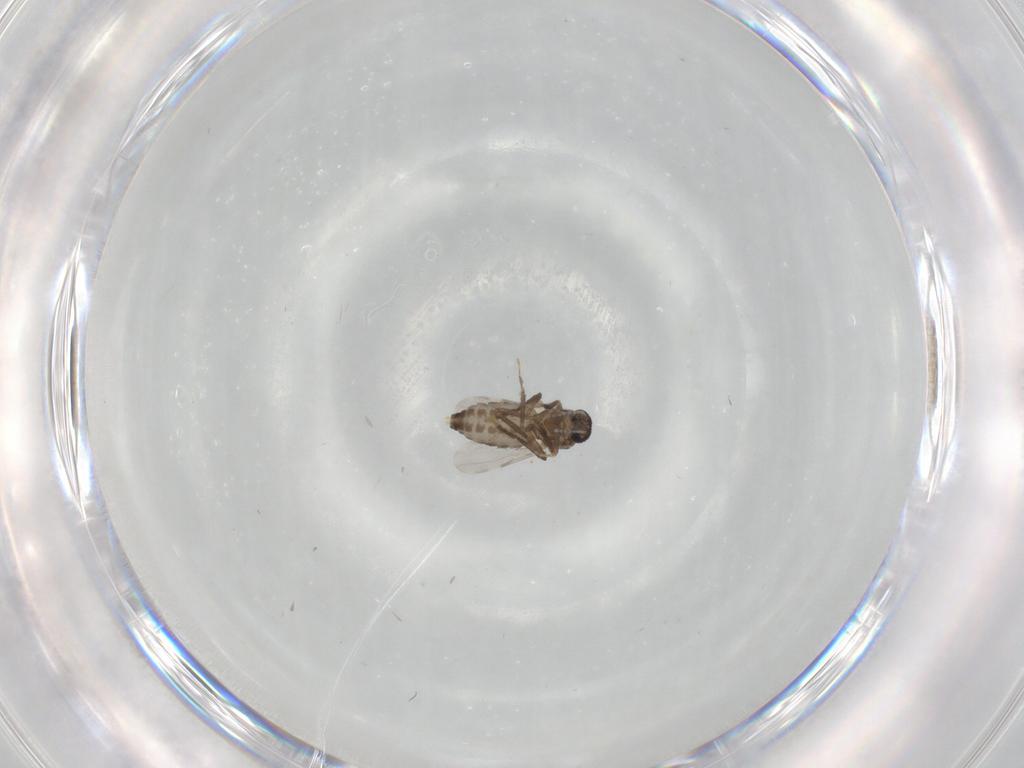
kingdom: Animalia
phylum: Arthropoda
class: Insecta
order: Diptera
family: Ceratopogonidae
